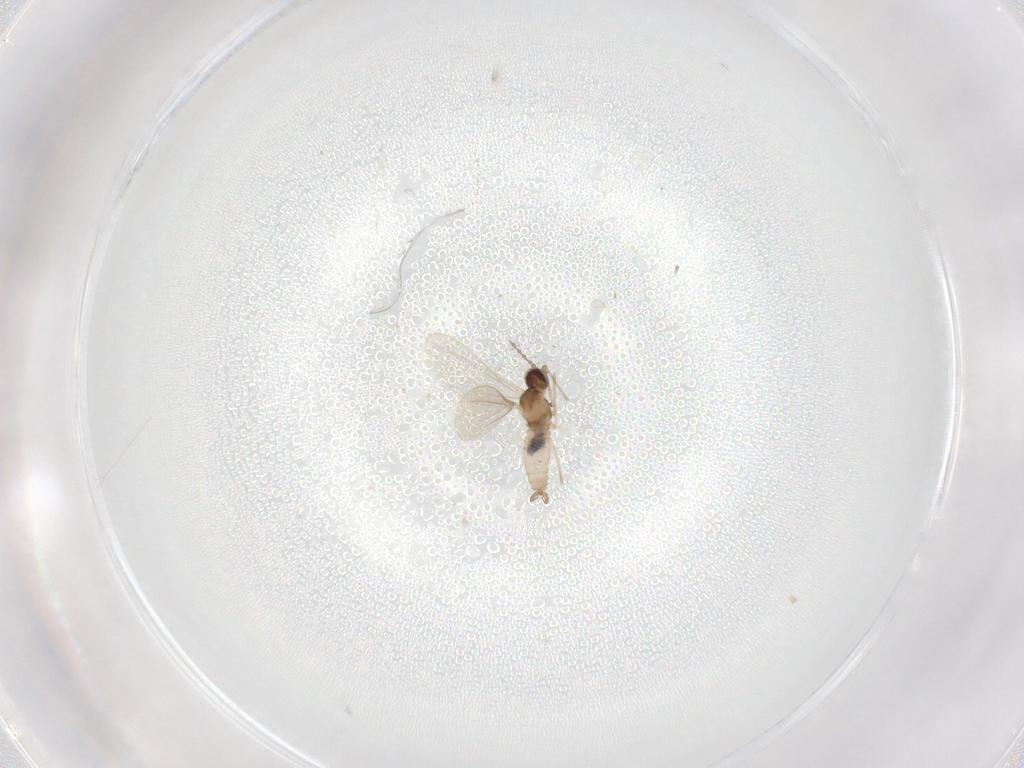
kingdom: Animalia
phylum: Arthropoda
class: Insecta
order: Diptera
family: Cecidomyiidae
